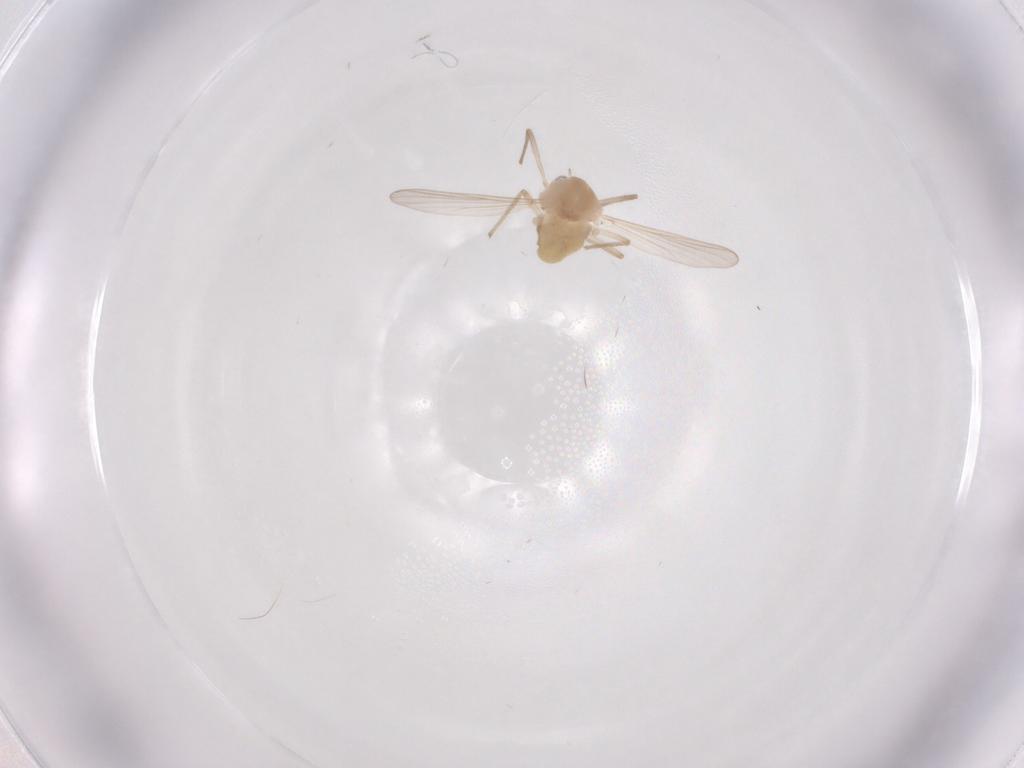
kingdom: Animalia
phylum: Arthropoda
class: Insecta
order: Diptera
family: Chironomidae
